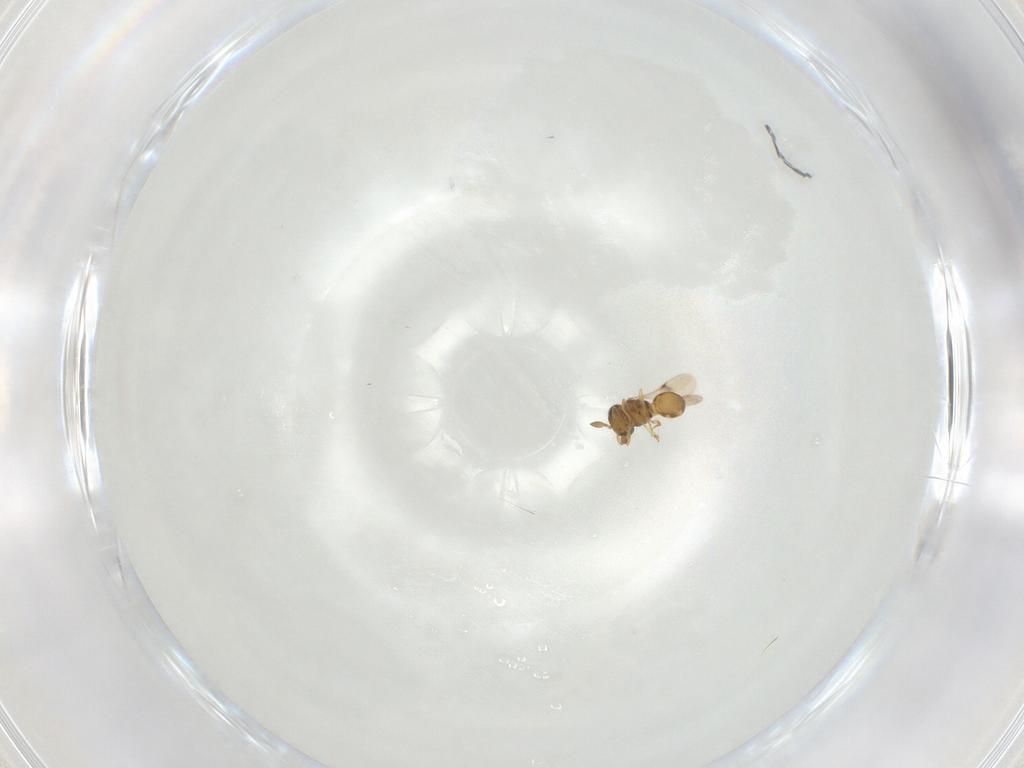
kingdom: Animalia
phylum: Arthropoda
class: Insecta
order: Hymenoptera
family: Scelionidae
